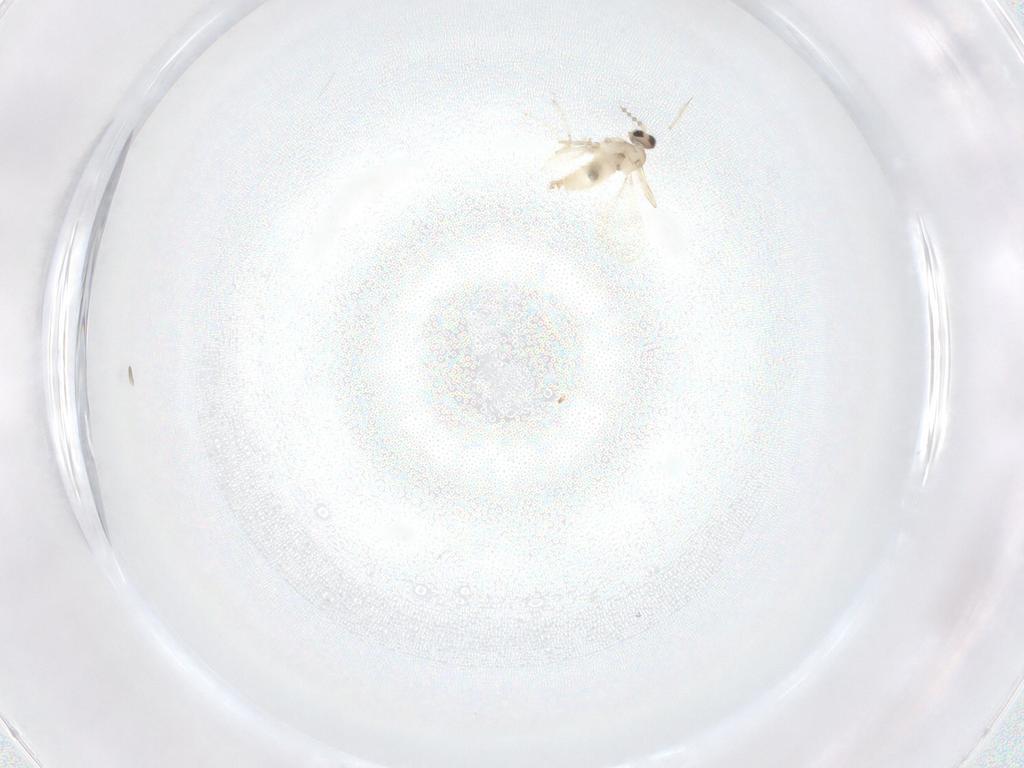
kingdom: Animalia
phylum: Arthropoda
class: Insecta
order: Diptera
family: Cecidomyiidae
